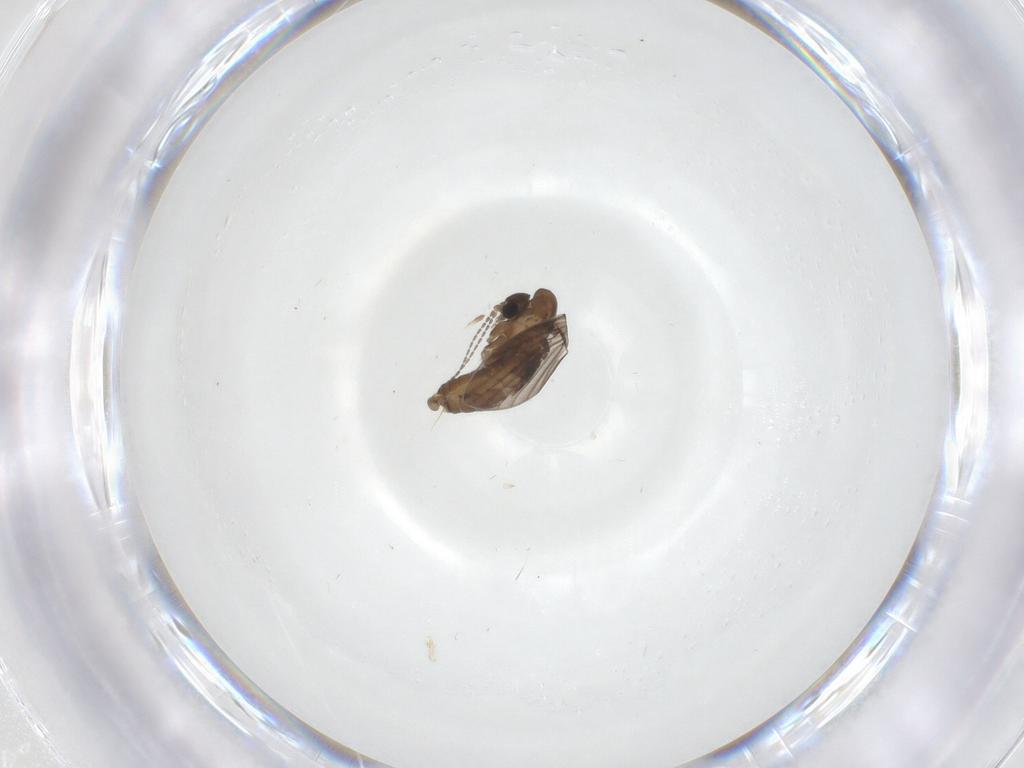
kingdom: Animalia
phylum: Arthropoda
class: Insecta
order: Diptera
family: Psychodidae
